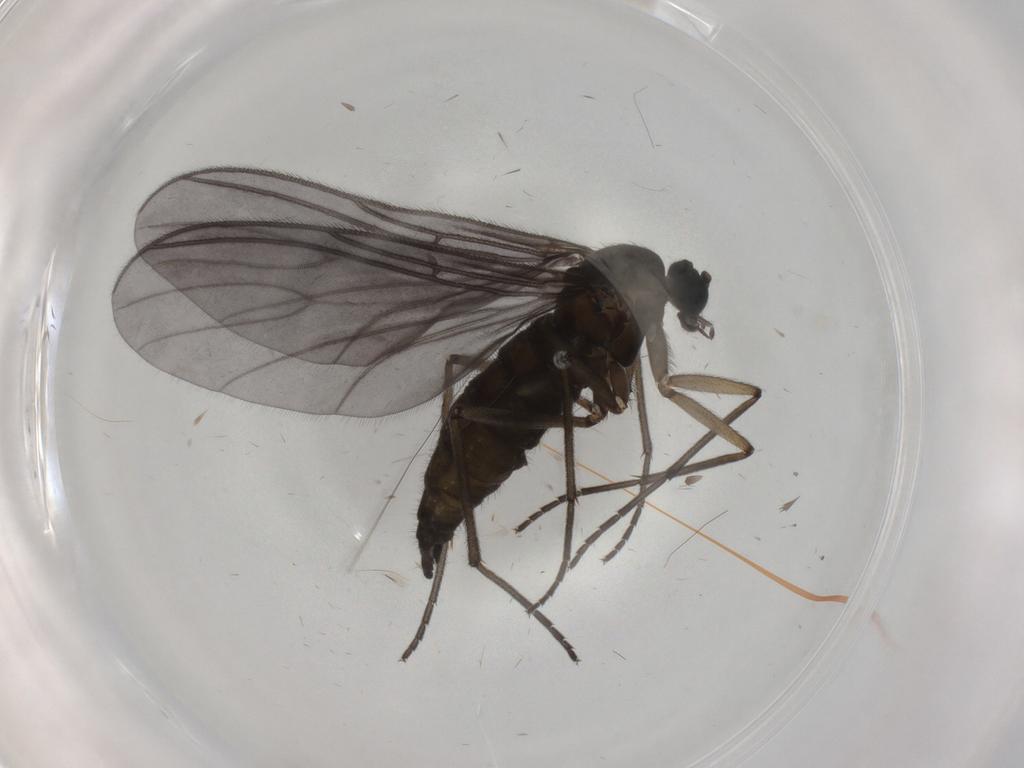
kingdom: Animalia
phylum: Arthropoda
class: Insecta
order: Diptera
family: Sciaridae
